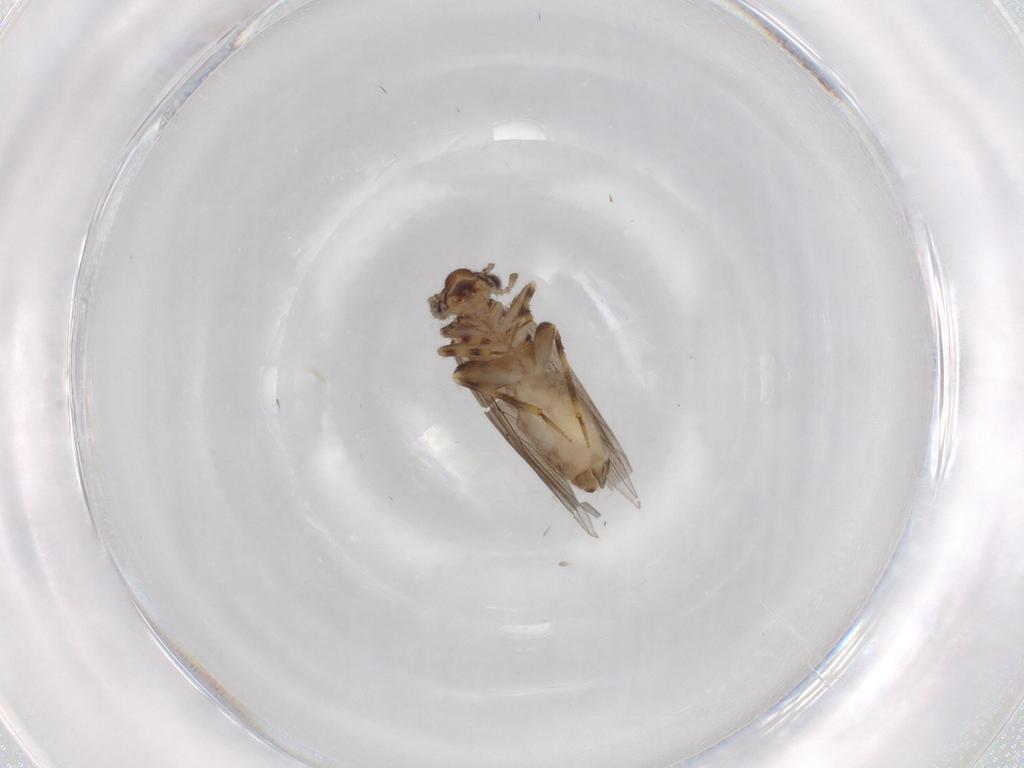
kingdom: Animalia
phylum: Arthropoda
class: Insecta
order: Psocodea
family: Lepidopsocidae
